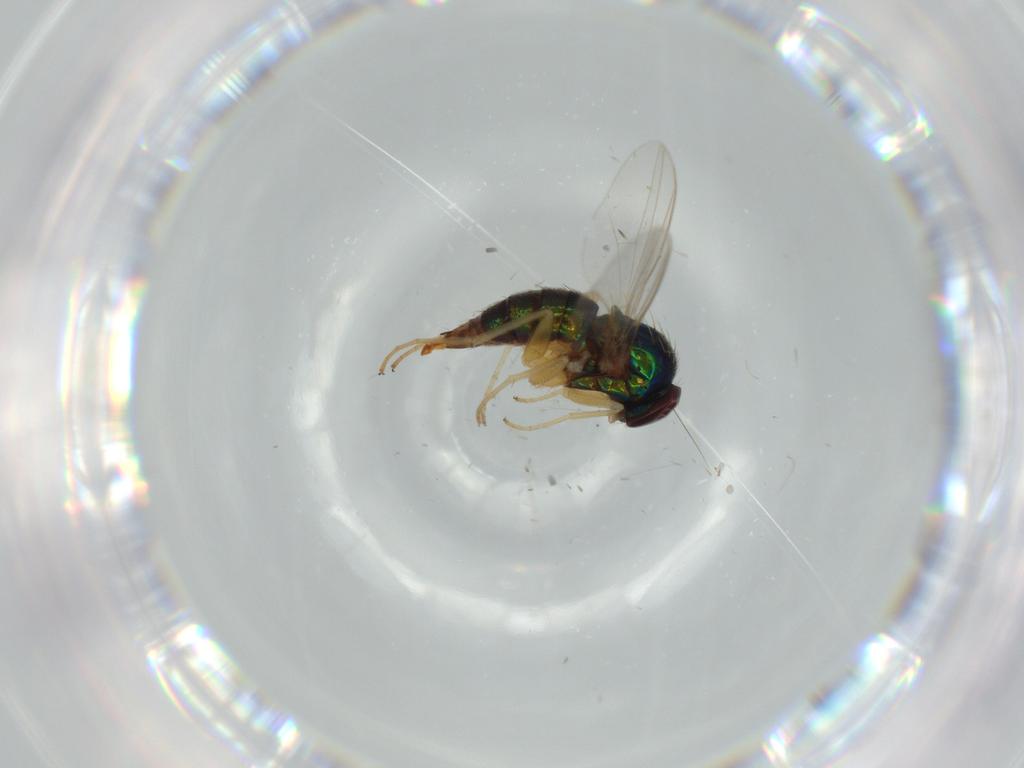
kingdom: Animalia
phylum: Arthropoda
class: Insecta
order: Diptera
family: Dolichopodidae
